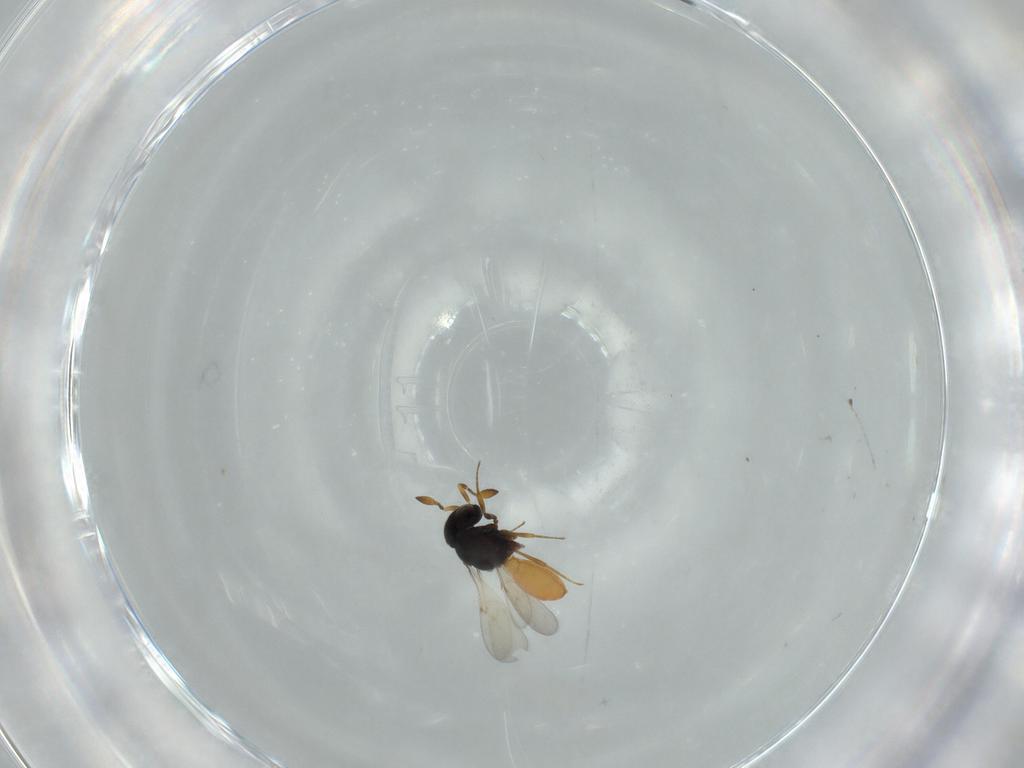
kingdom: Animalia
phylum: Arthropoda
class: Insecta
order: Hymenoptera
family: Scelionidae
